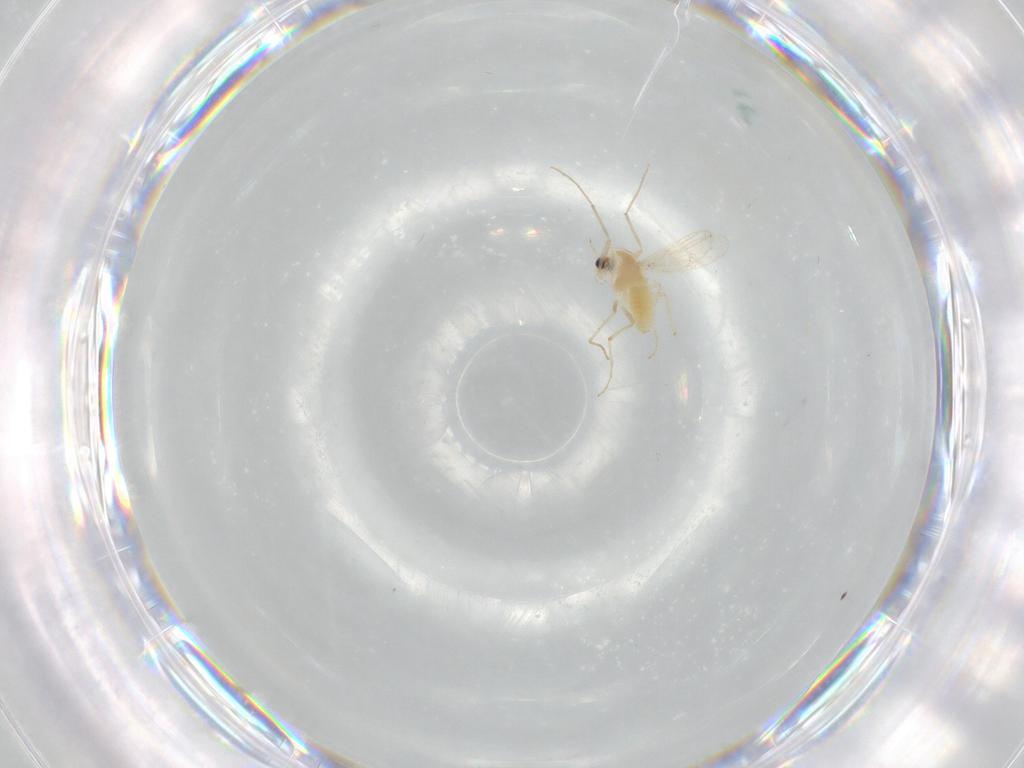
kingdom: Animalia
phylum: Arthropoda
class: Insecta
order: Diptera
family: Chironomidae
